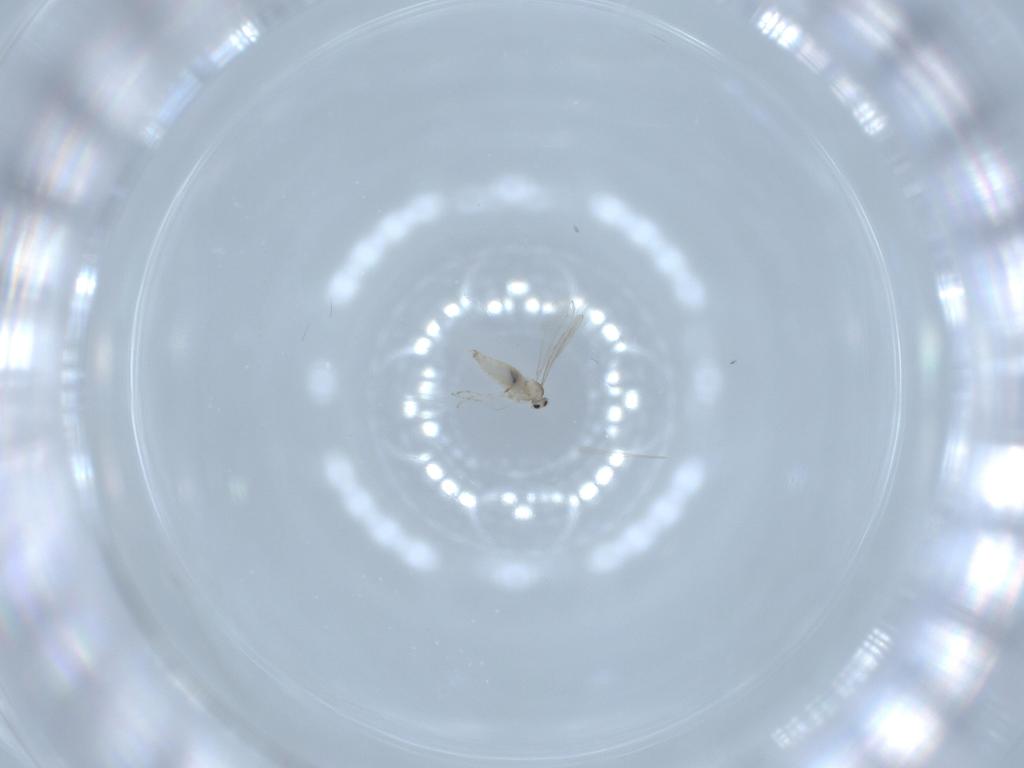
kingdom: Animalia
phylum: Arthropoda
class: Insecta
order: Diptera
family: Cecidomyiidae
